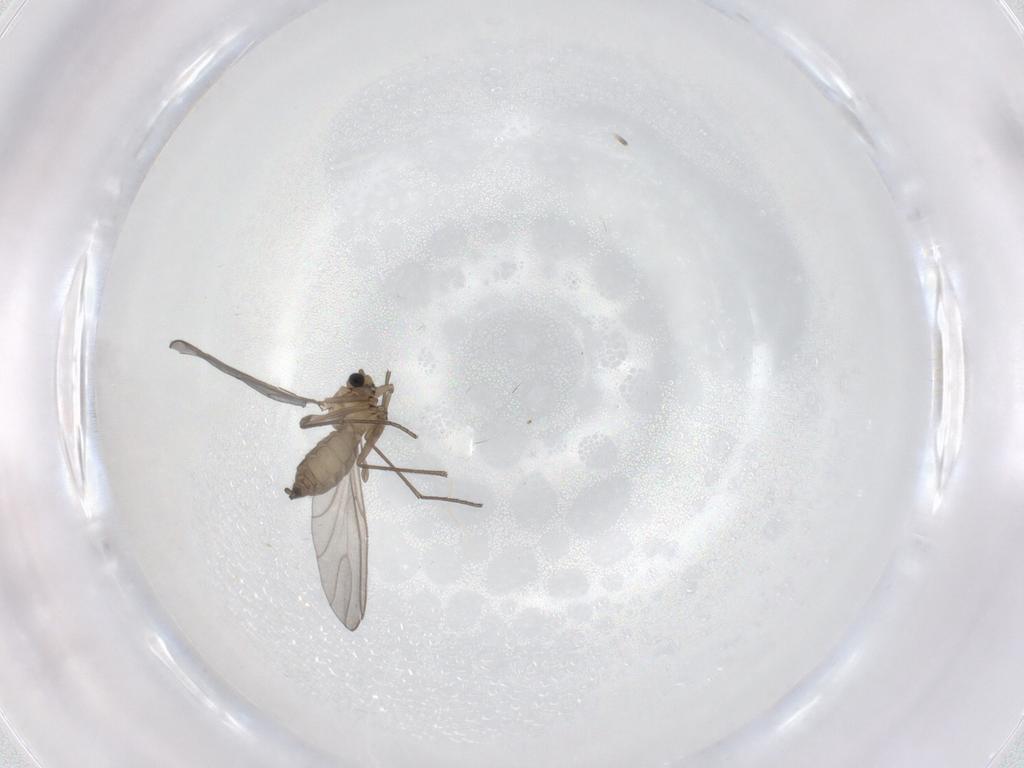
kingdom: Animalia
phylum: Arthropoda
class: Insecta
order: Diptera
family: Sciaridae
